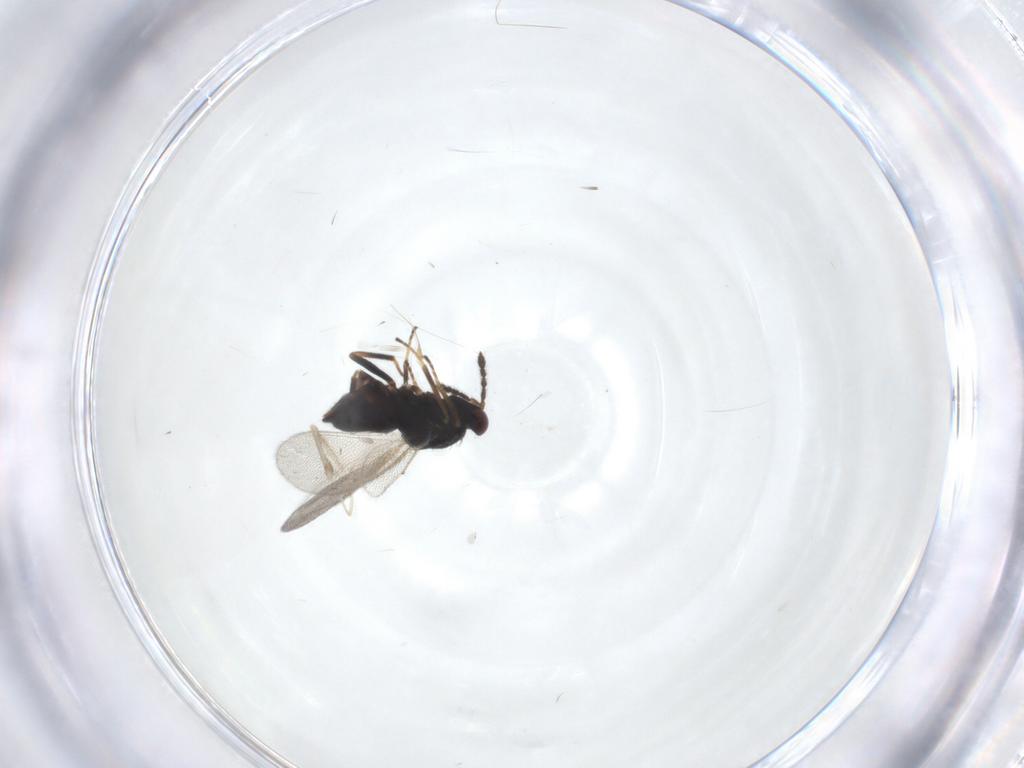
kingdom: Animalia
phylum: Arthropoda
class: Insecta
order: Hymenoptera
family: Eulophidae
